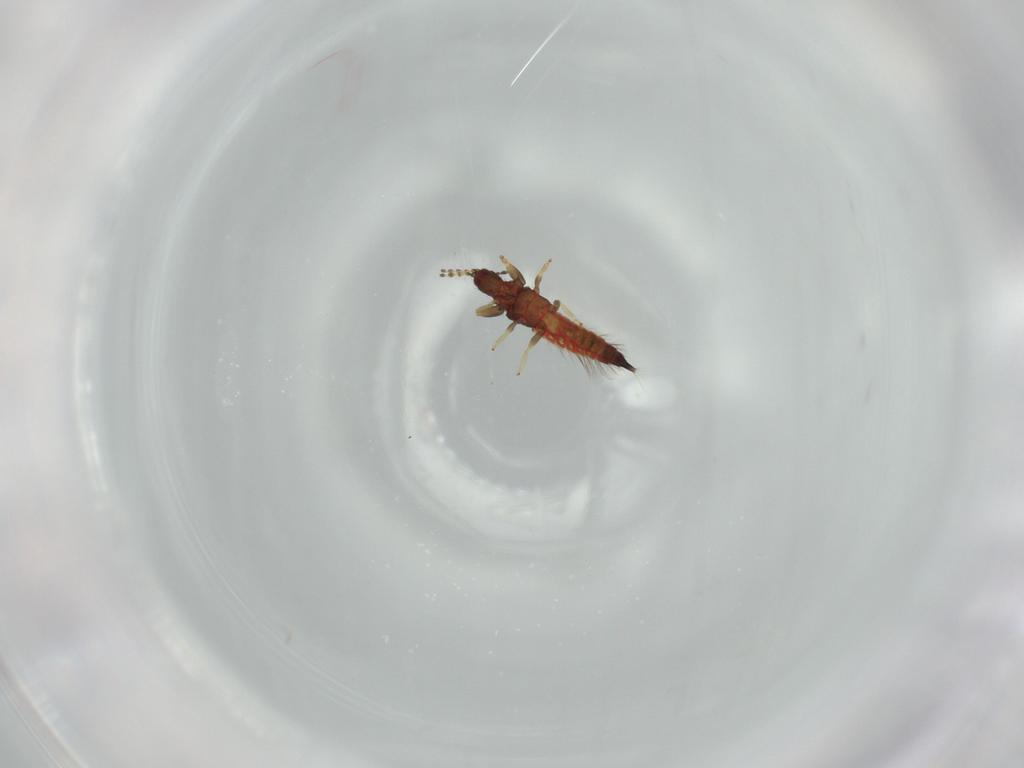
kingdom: Animalia
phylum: Arthropoda
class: Insecta
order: Thysanoptera
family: Phlaeothripidae
